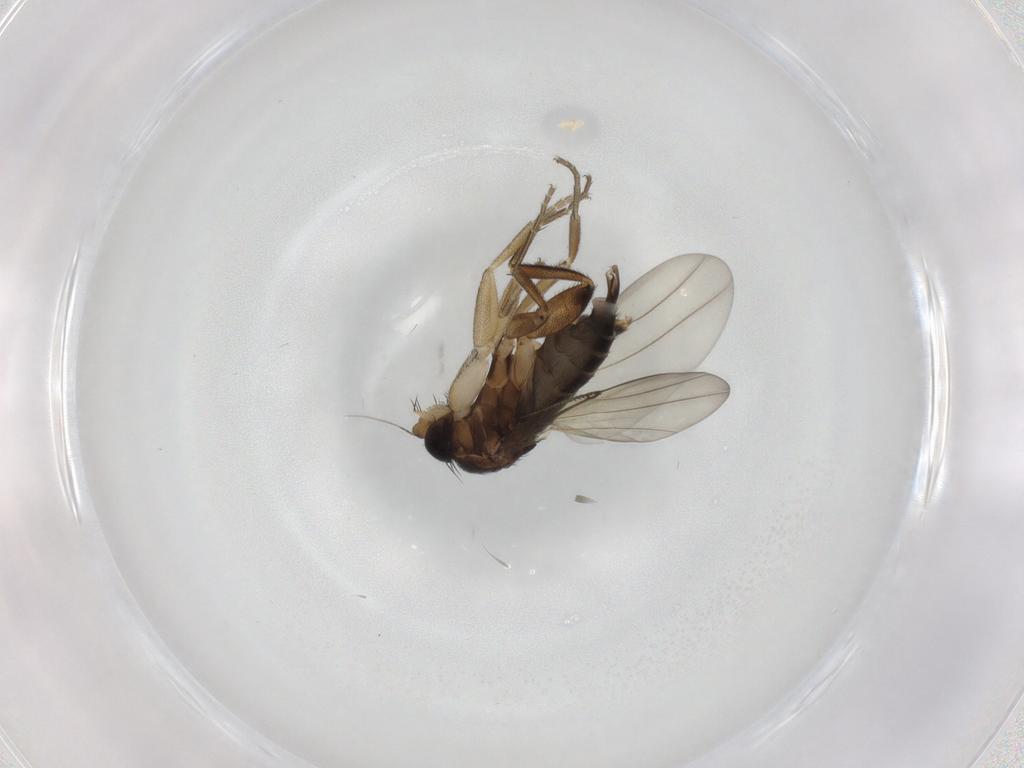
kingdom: Animalia
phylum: Arthropoda
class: Insecta
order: Diptera
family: Phoridae
